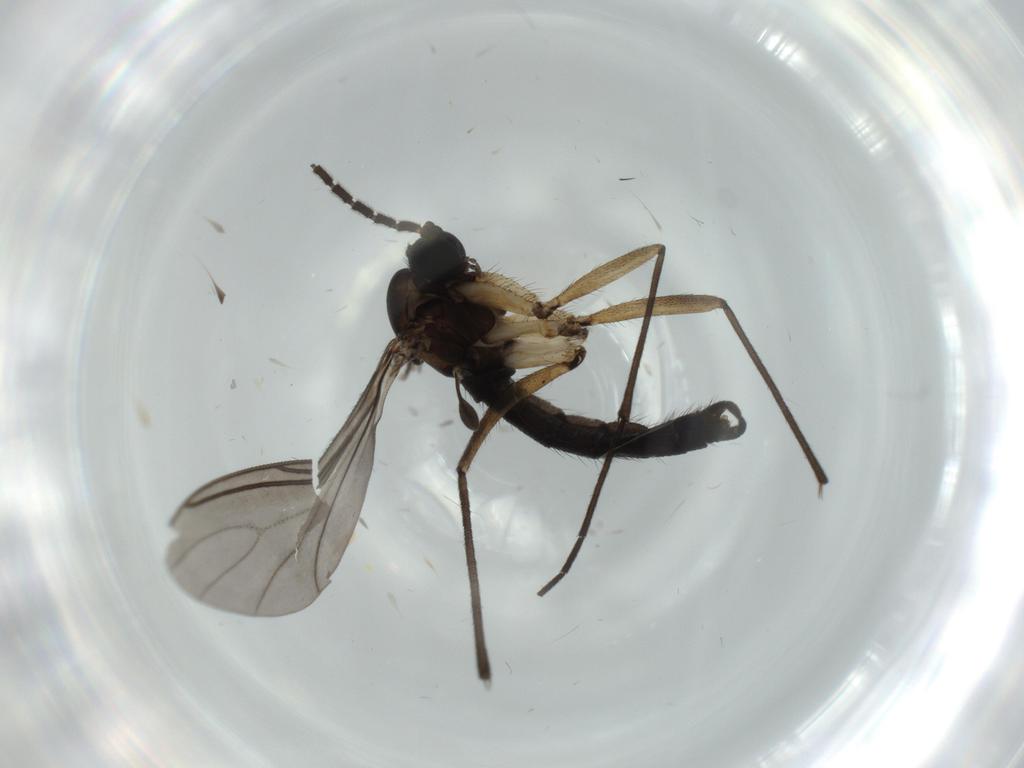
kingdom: Animalia
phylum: Arthropoda
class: Insecta
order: Diptera
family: Sciaridae
